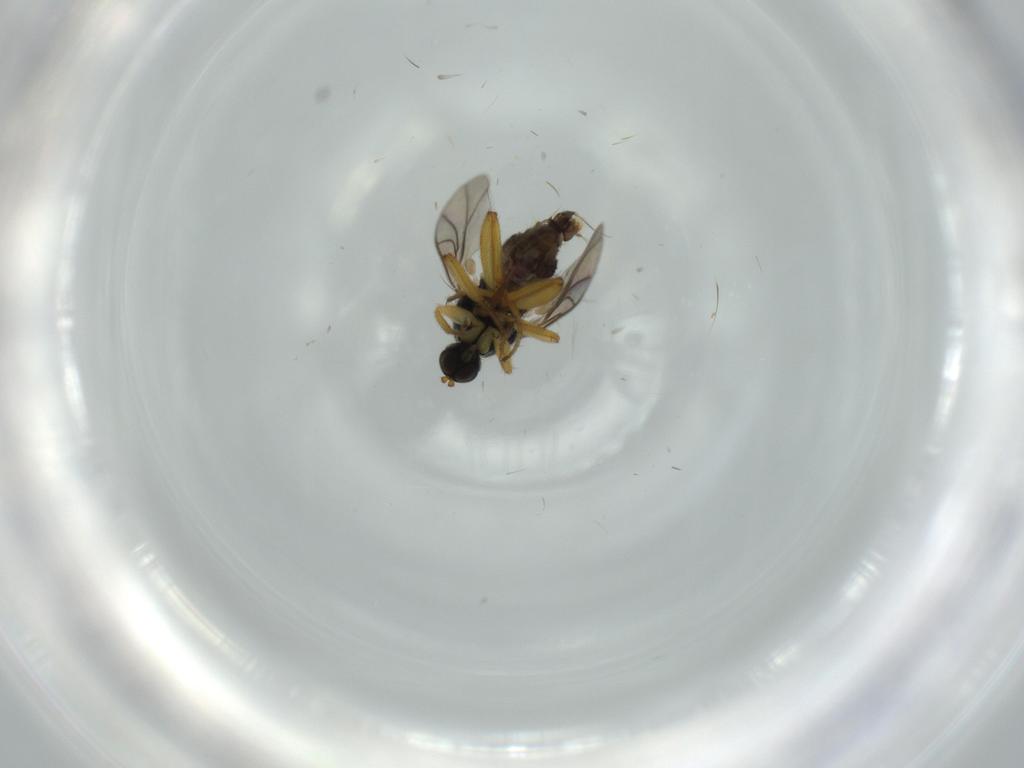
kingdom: Animalia
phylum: Arthropoda
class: Insecta
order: Diptera
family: Hybotidae
